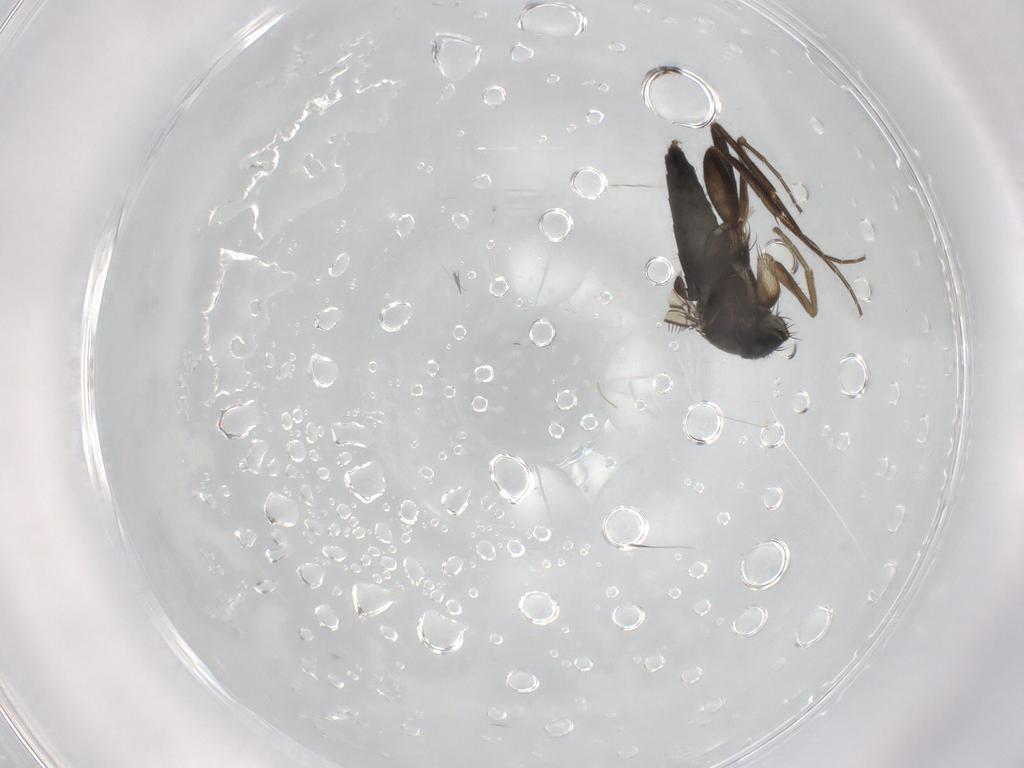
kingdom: Animalia
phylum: Arthropoda
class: Insecta
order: Diptera
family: Phoridae
